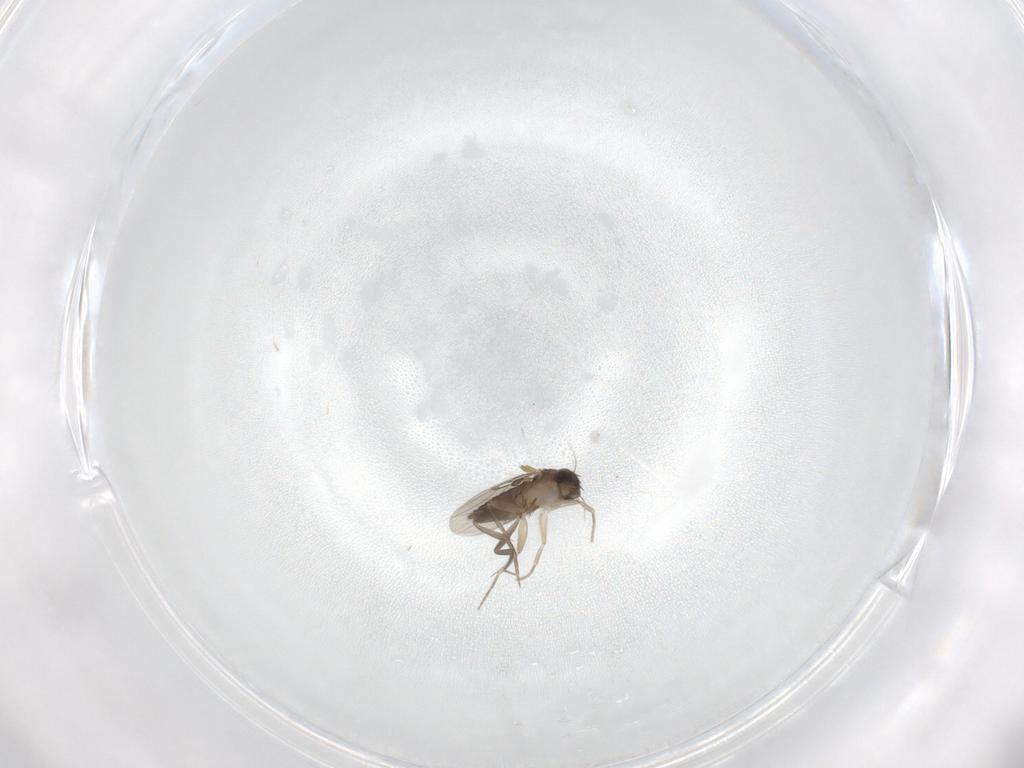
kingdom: Animalia
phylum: Arthropoda
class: Insecta
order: Diptera
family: Phoridae
